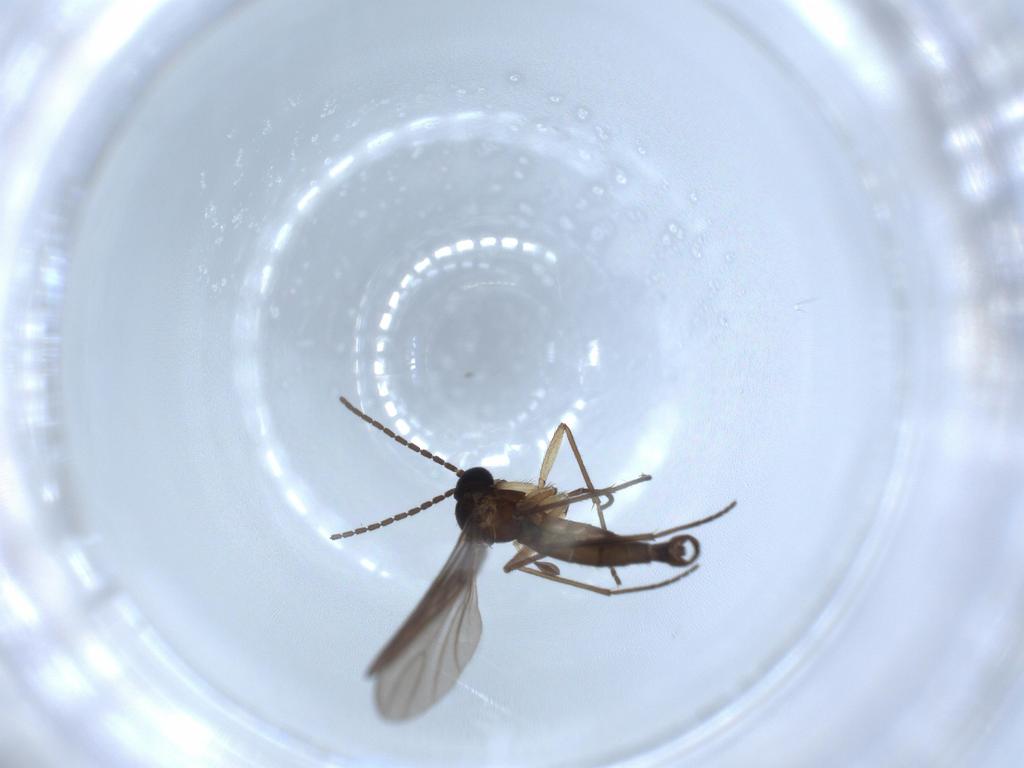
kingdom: Animalia
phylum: Arthropoda
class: Insecta
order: Diptera
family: Sciaridae
